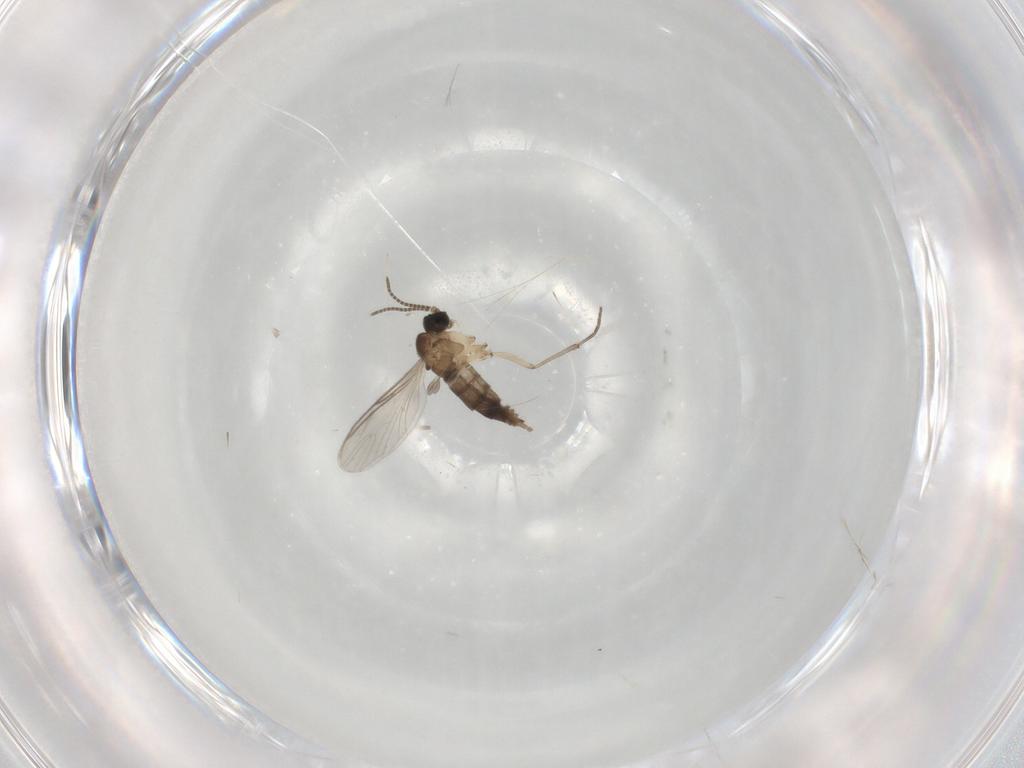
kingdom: Animalia
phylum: Arthropoda
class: Insecta
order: Diptera
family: Sciaridae
